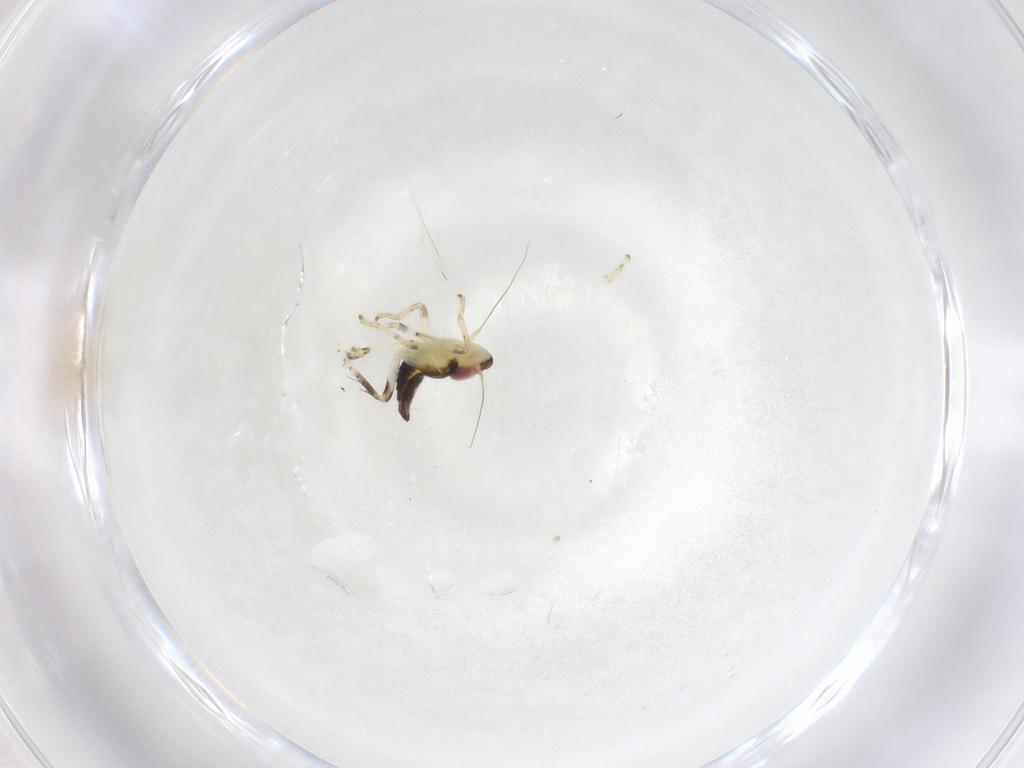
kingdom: Animalia
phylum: Arthropoda
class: Insecta
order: Hemiptera
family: Cicadellidae
